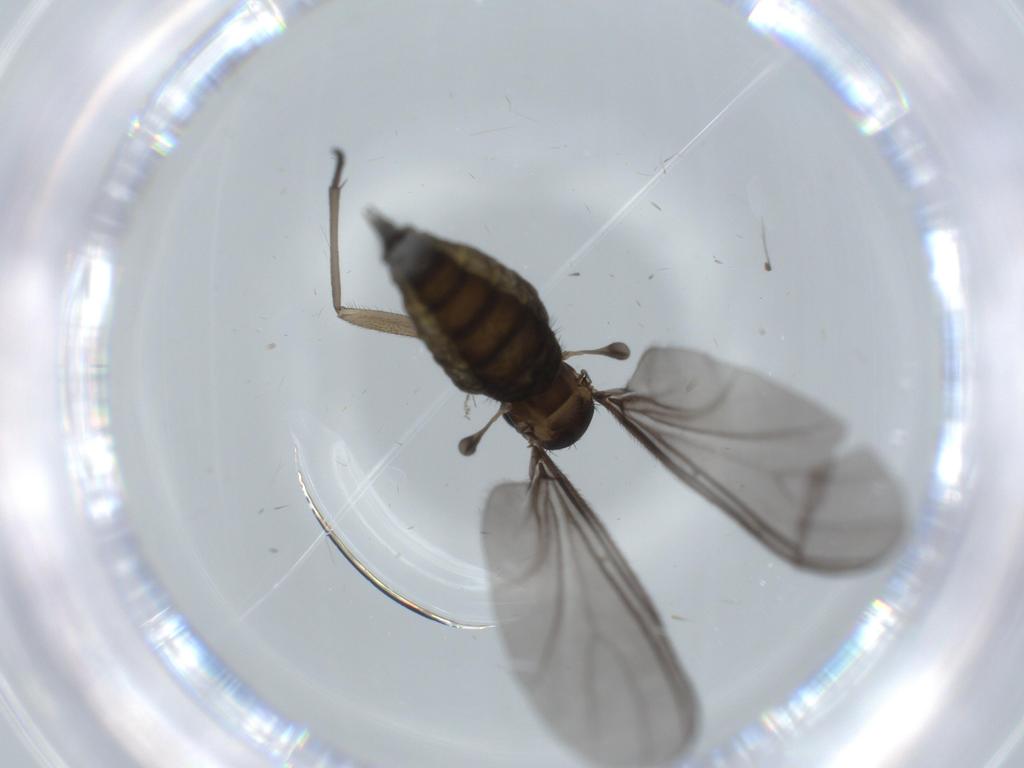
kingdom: Animalia
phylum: Arthropoda
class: Insecta
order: Diptera
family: Sciaridae
